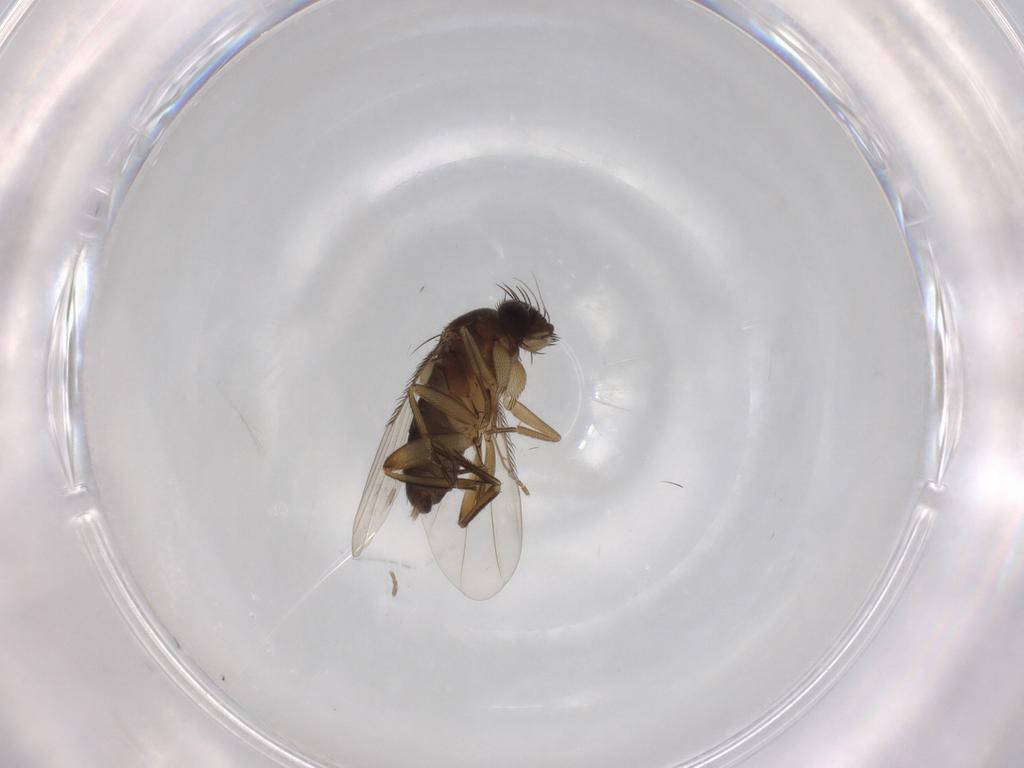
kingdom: Animalia
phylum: Arthropoda
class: Insecta
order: Diptera
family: Phoridae
